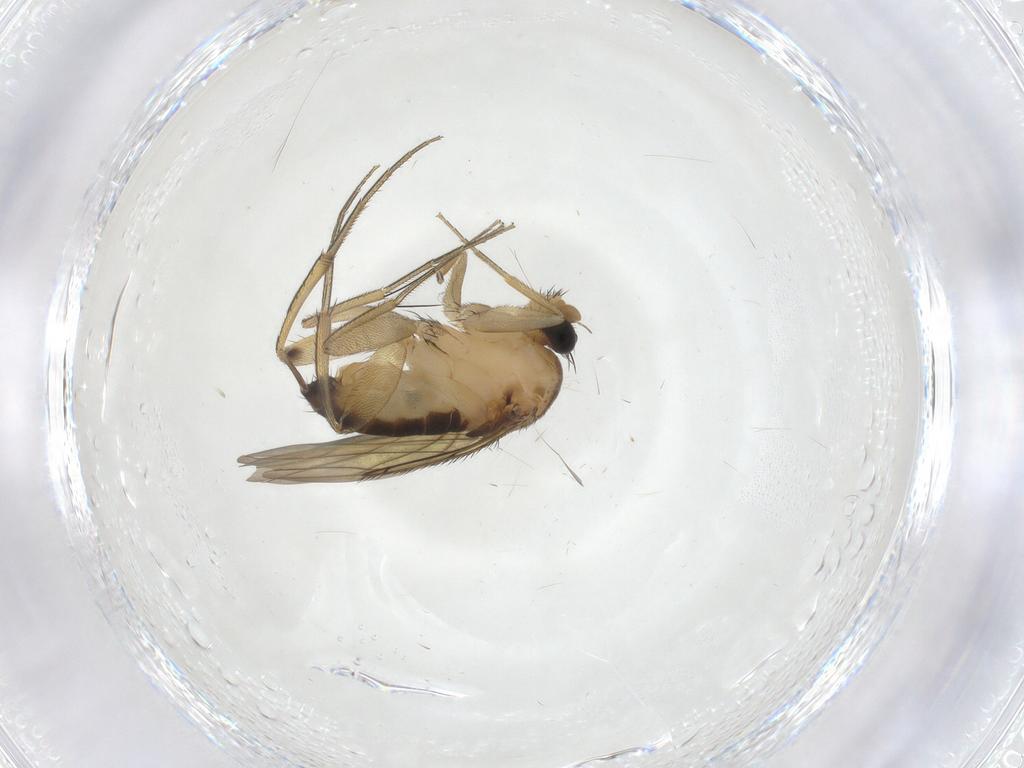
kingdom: Animalia
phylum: Arthropoda
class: Insecta
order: Diptera
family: Phoridae
